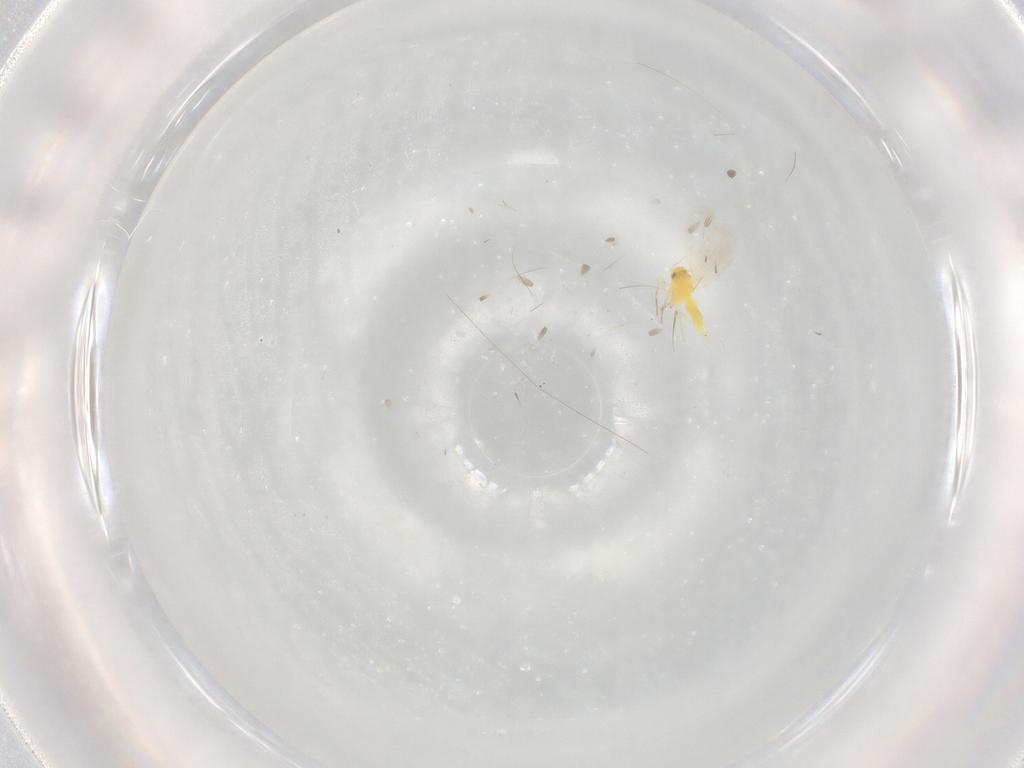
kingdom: Animalia
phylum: Arthropoda
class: Insecta
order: Hemiptera
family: Aleyrodidae
